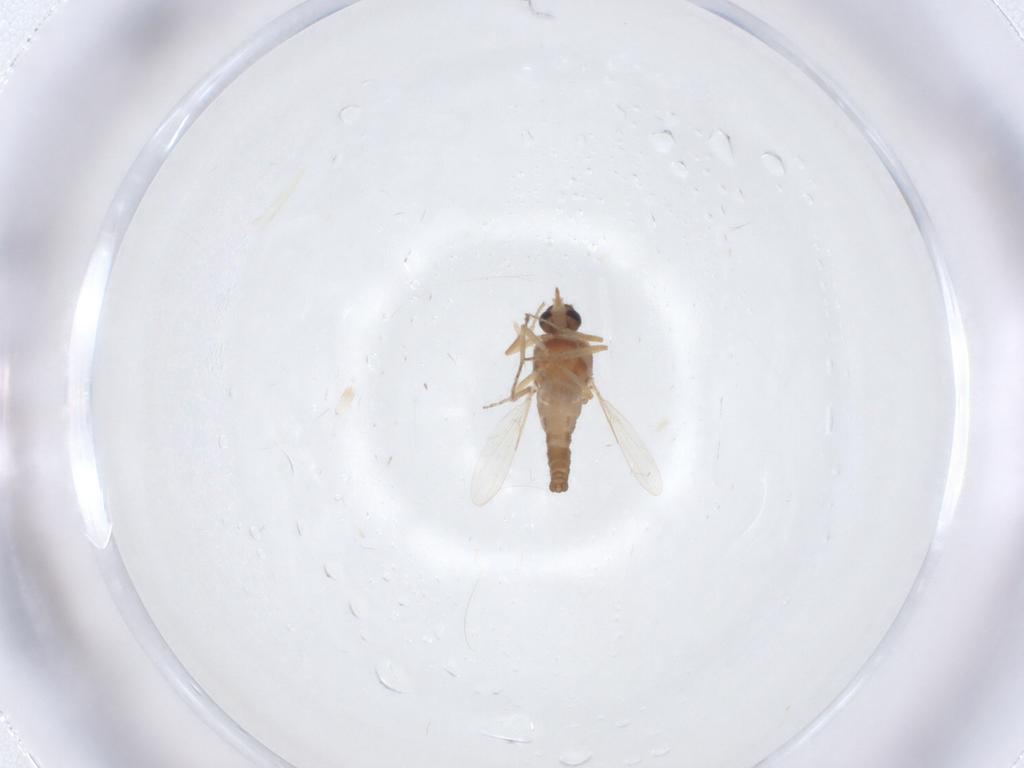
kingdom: Animalia
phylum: Arthropoda
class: Insecta
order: Diptera
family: Ceratopogonidae
